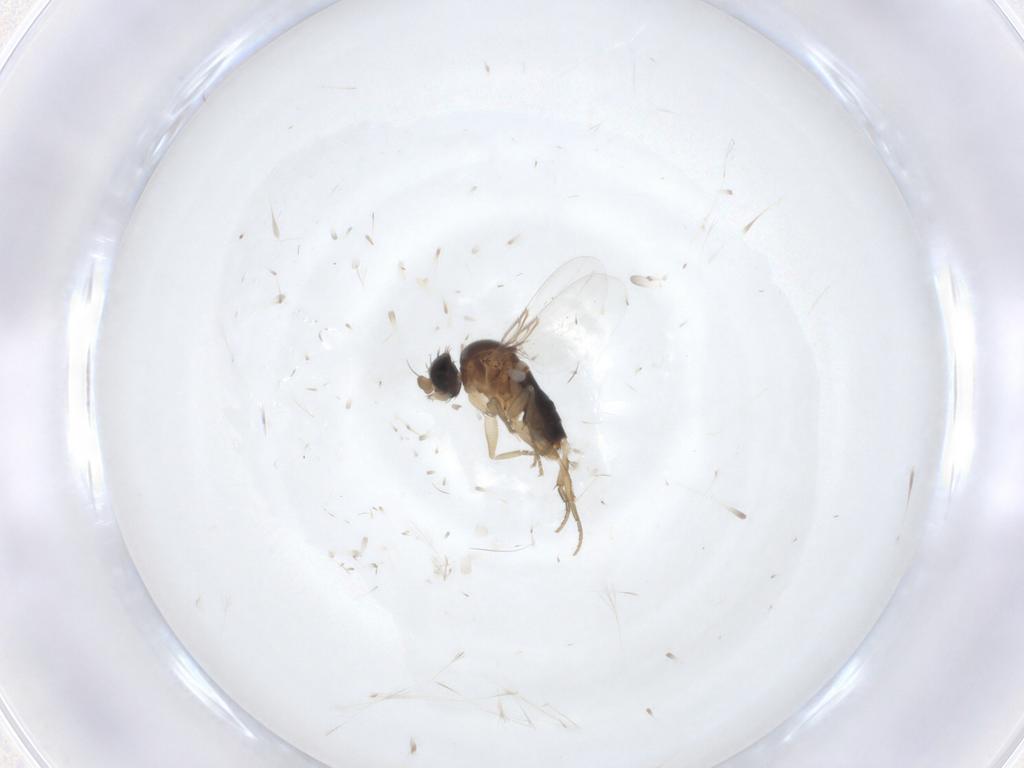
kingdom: Animalia
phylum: Arthropoda
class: Insecta
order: Diptera
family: Phoridae
